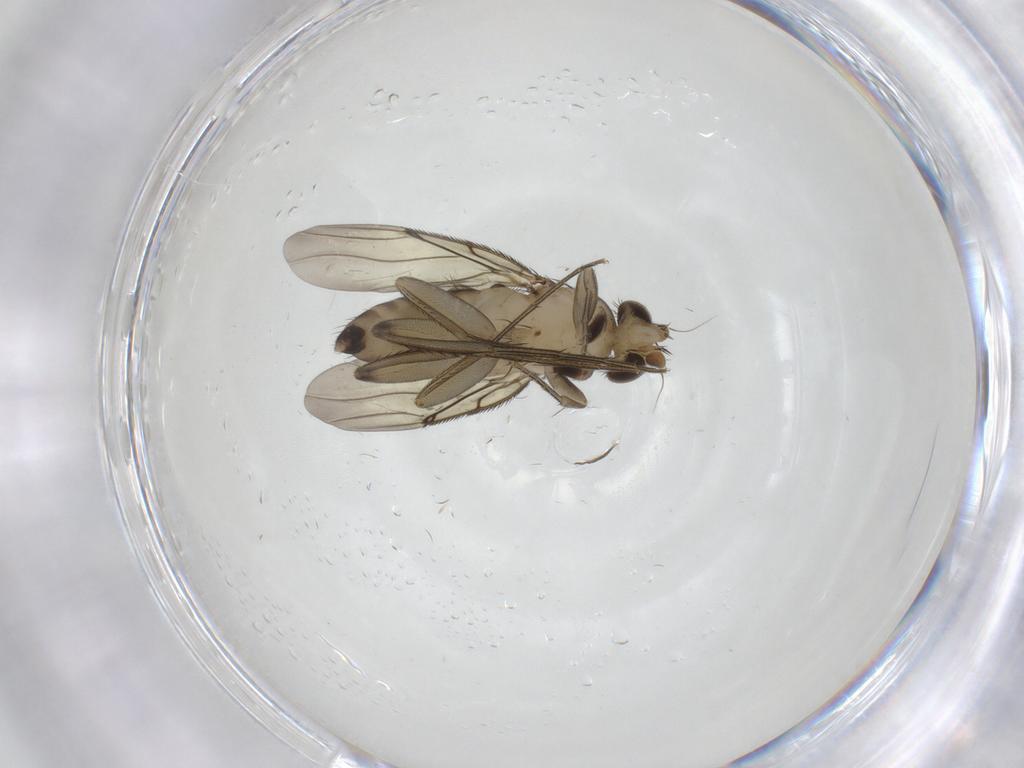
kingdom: Animalia
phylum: Arthropoda
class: Insecta
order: Diptera
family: Phoridae
